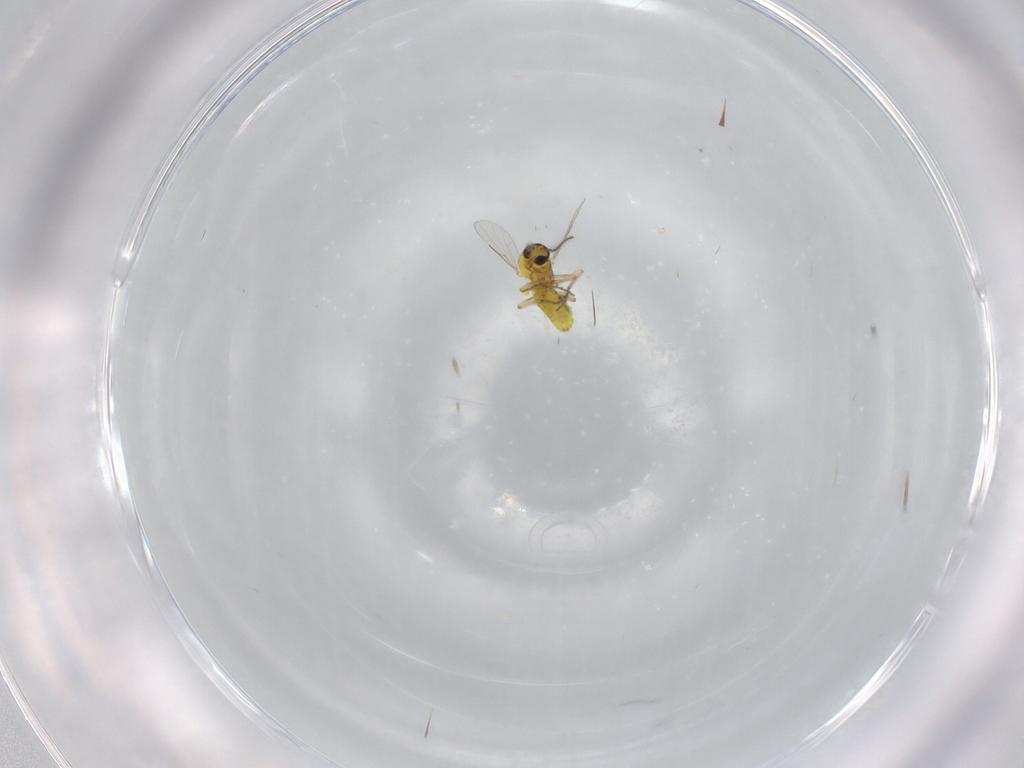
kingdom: Animalia
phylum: Arthropoda
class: Insecta
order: Diptera
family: Ceratopogonidae
